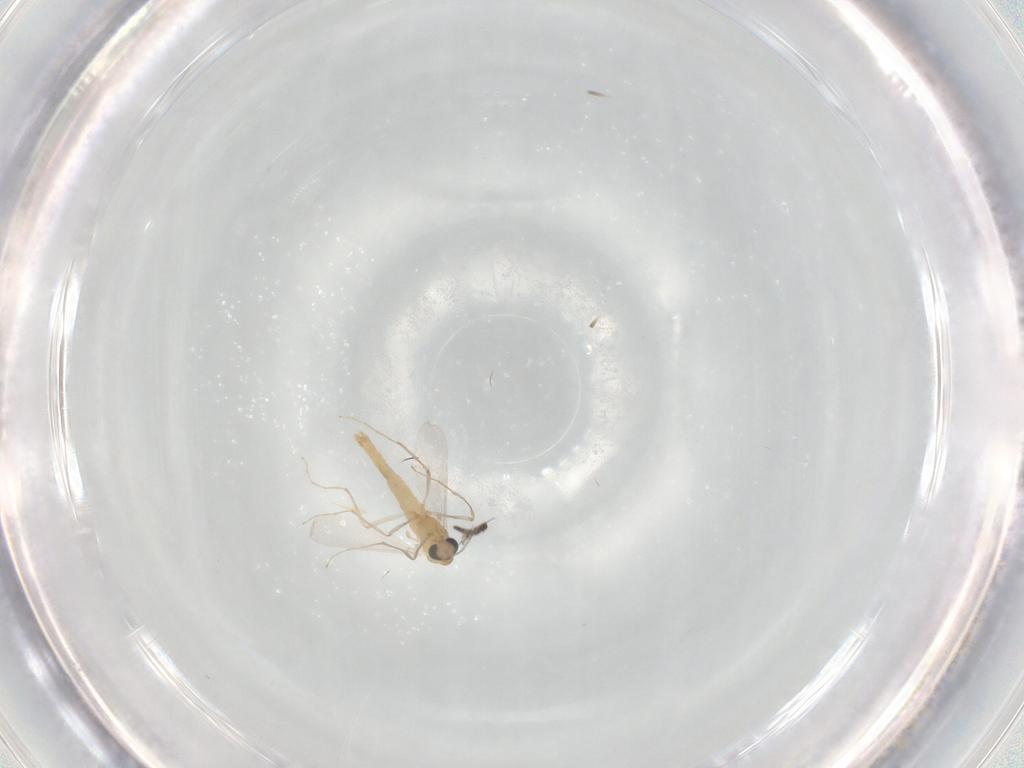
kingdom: Animalia
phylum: Arthropoda
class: Insecta
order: Diptera
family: Chironomidae
